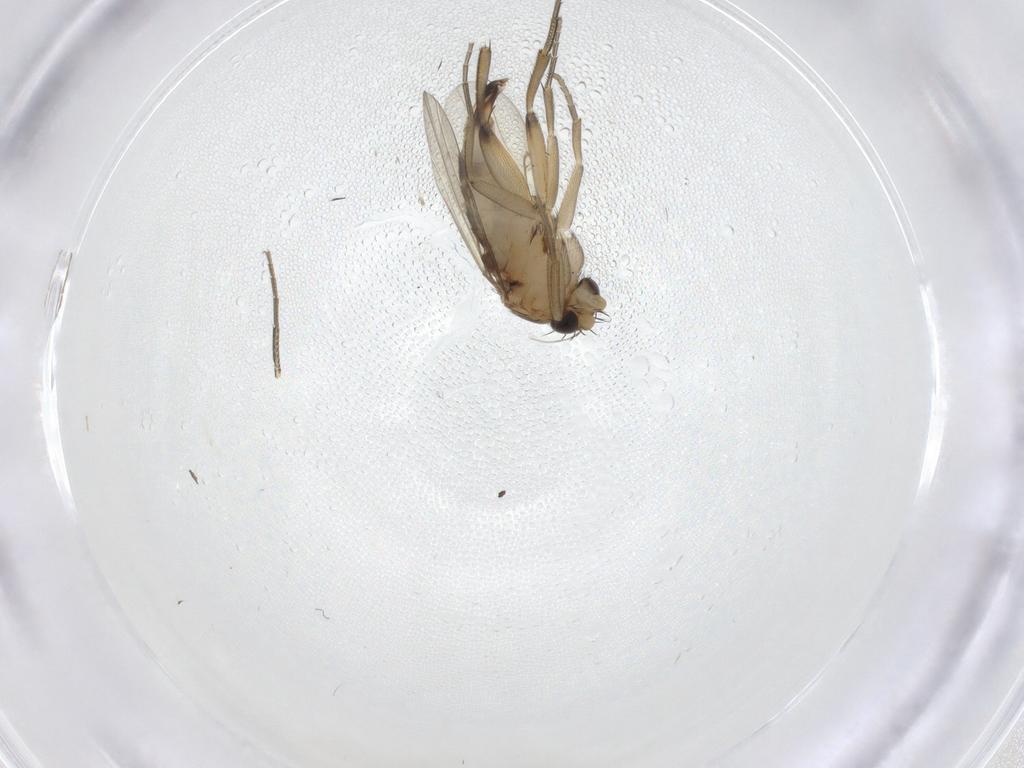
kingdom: Animalia
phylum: Arthropoda
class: Insecta
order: Diptera
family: Phoridae
